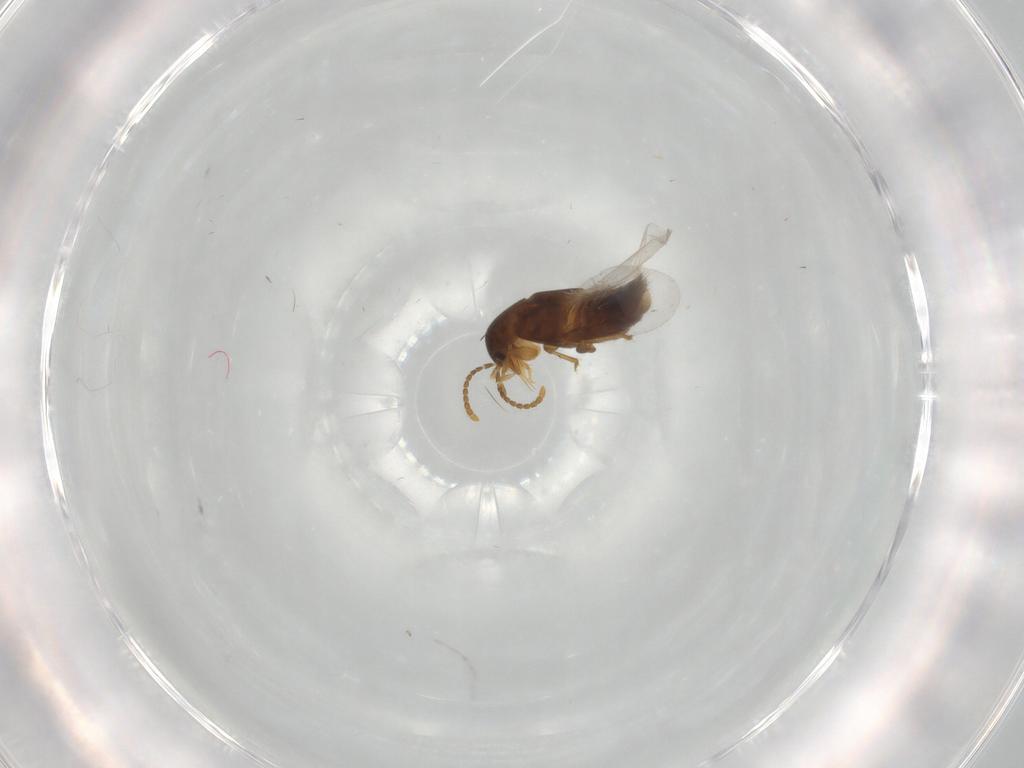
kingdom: Animalia
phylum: Arthropoda
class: Insecta
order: Coleoptera
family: Staphylinidae
